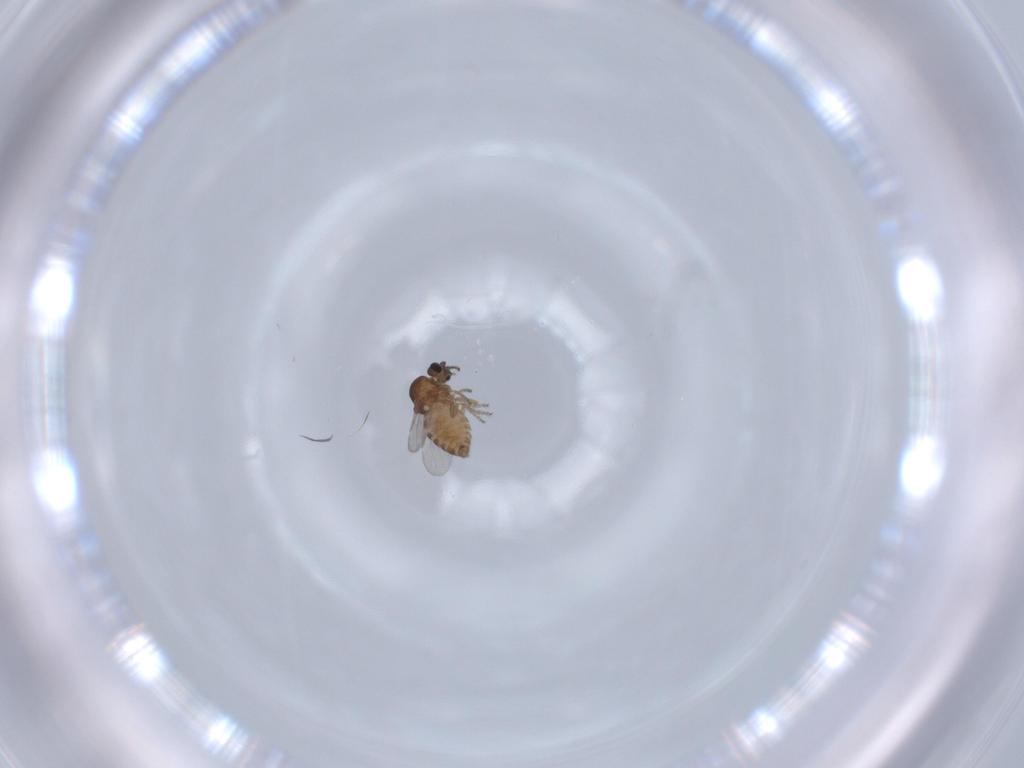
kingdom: Animalia
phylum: Arthropoda
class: Insecta
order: Diptera
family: Ceratopogonidae
